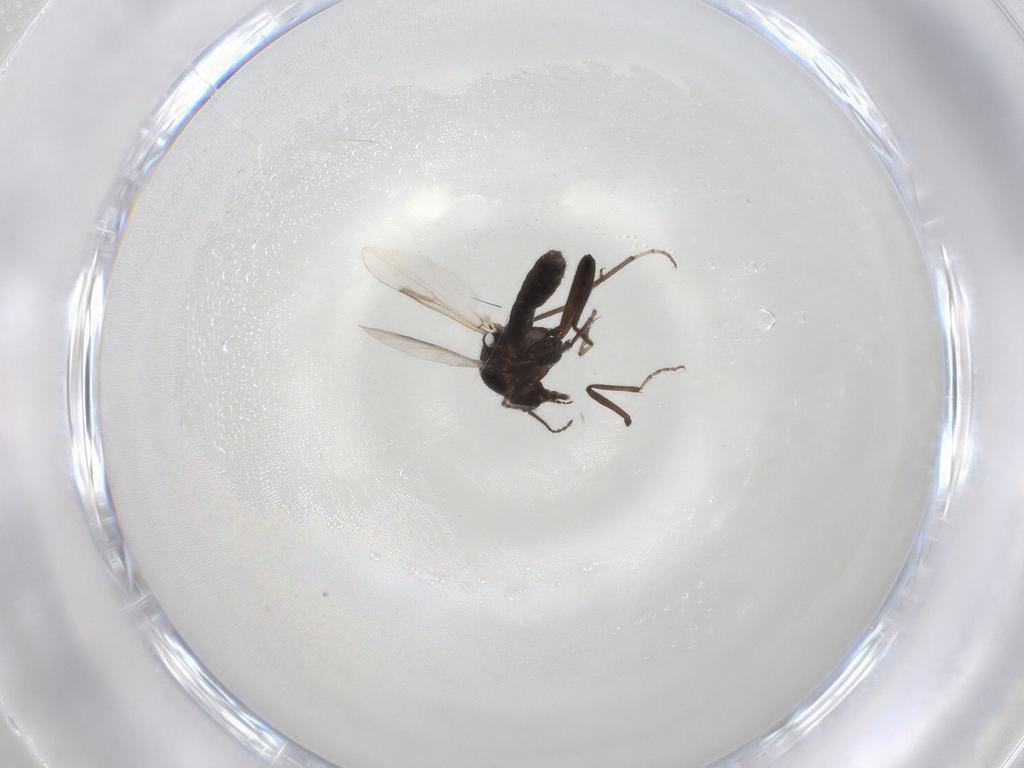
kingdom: Animalia
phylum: Arthropoda
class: Insecta
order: Diptera
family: Ceratopogonidae
